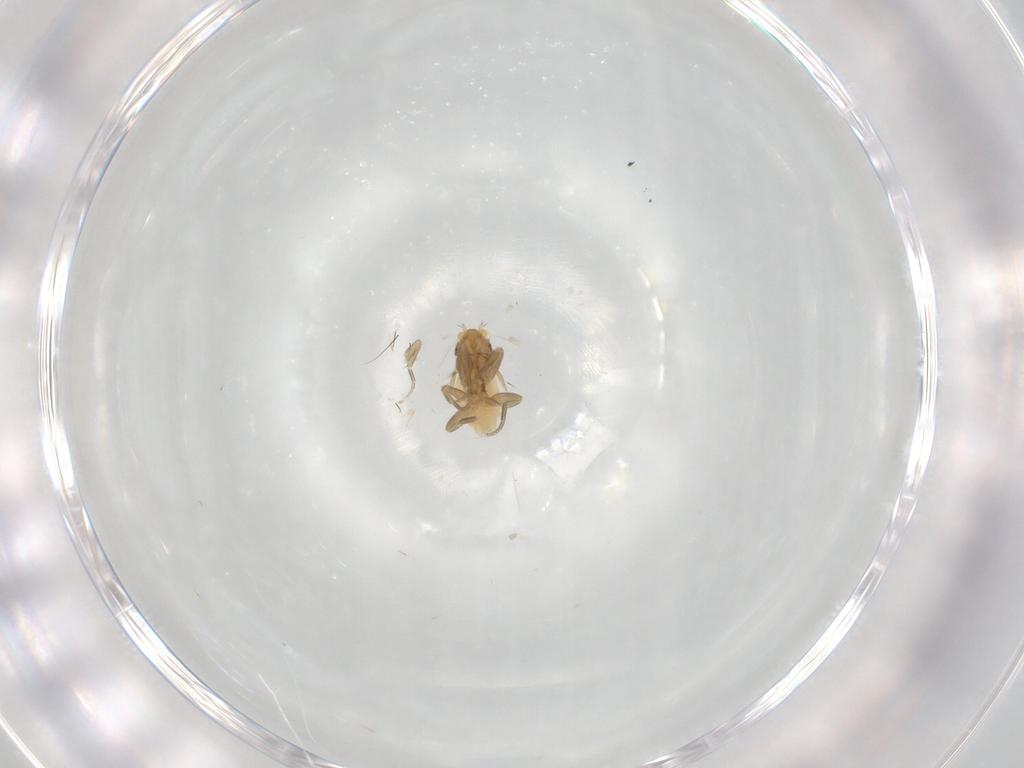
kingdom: Animalia
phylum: Arthropoda
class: Insecta
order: Diptera
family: Phoridae
